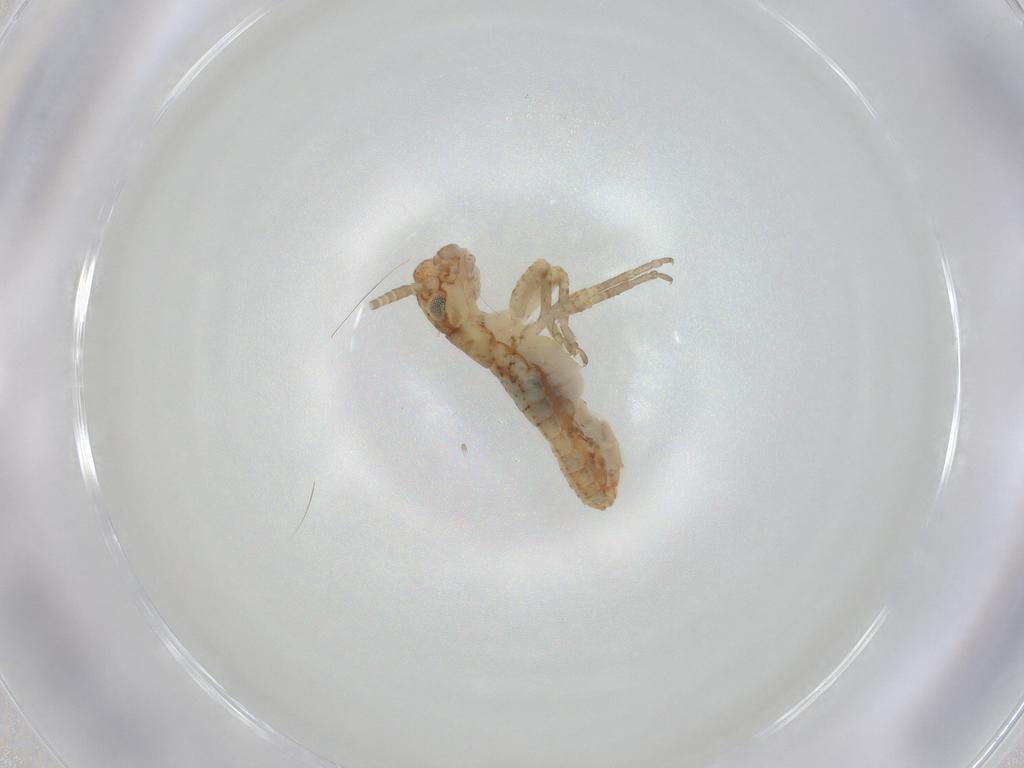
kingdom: Animalia
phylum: Arthropoda
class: Insecta
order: Orthoptera
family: Mogoplistidae
